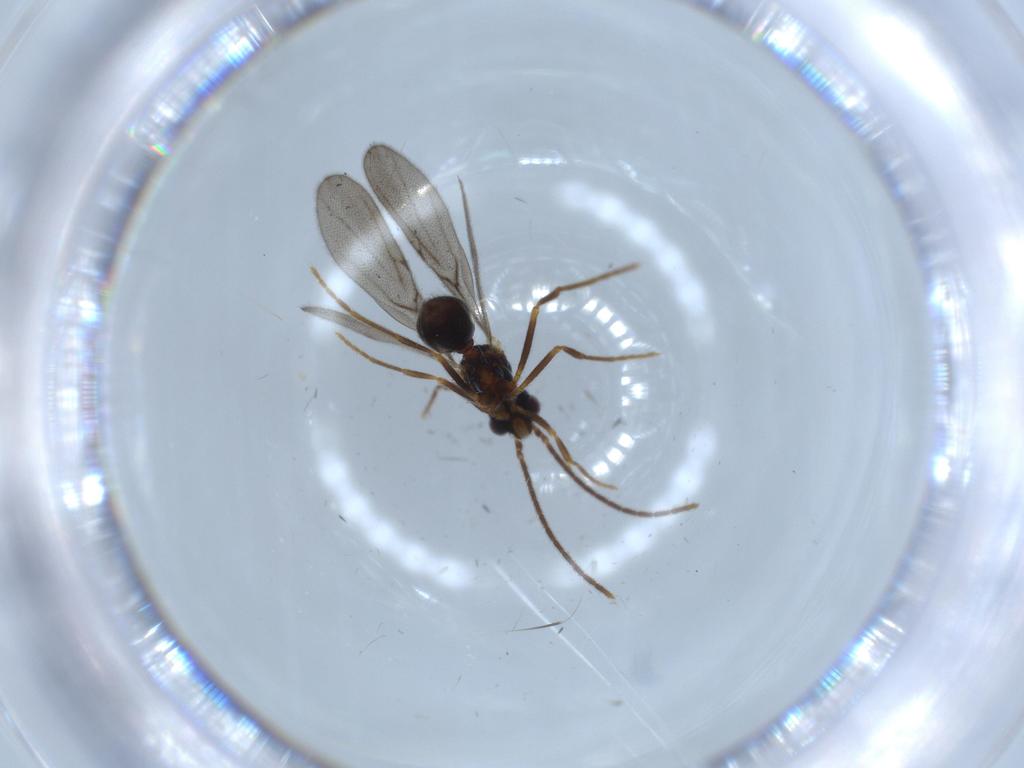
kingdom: Animalia
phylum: Arthropoda
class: Insecta
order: Hymenoptera
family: Formicidae
